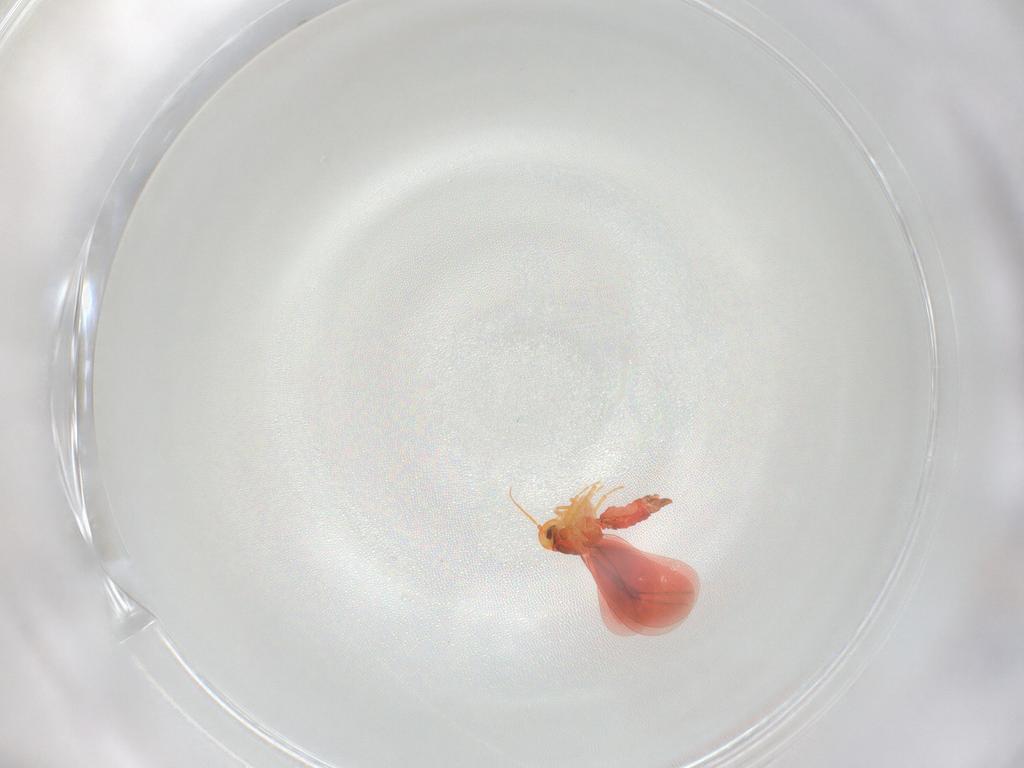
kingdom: Animalia
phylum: Arthropoda
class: Insecta
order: Hemiptera
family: Aleyrodidae
